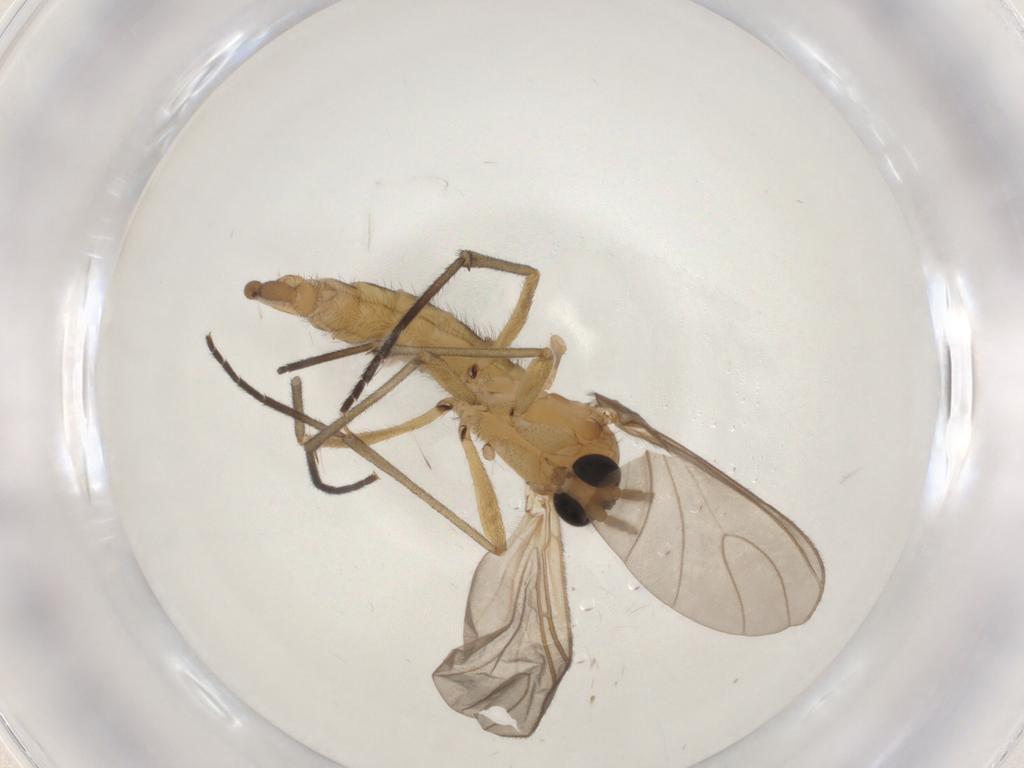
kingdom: Animalia
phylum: Arthropoda
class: Insecta
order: Diptera
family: Sciaridae
